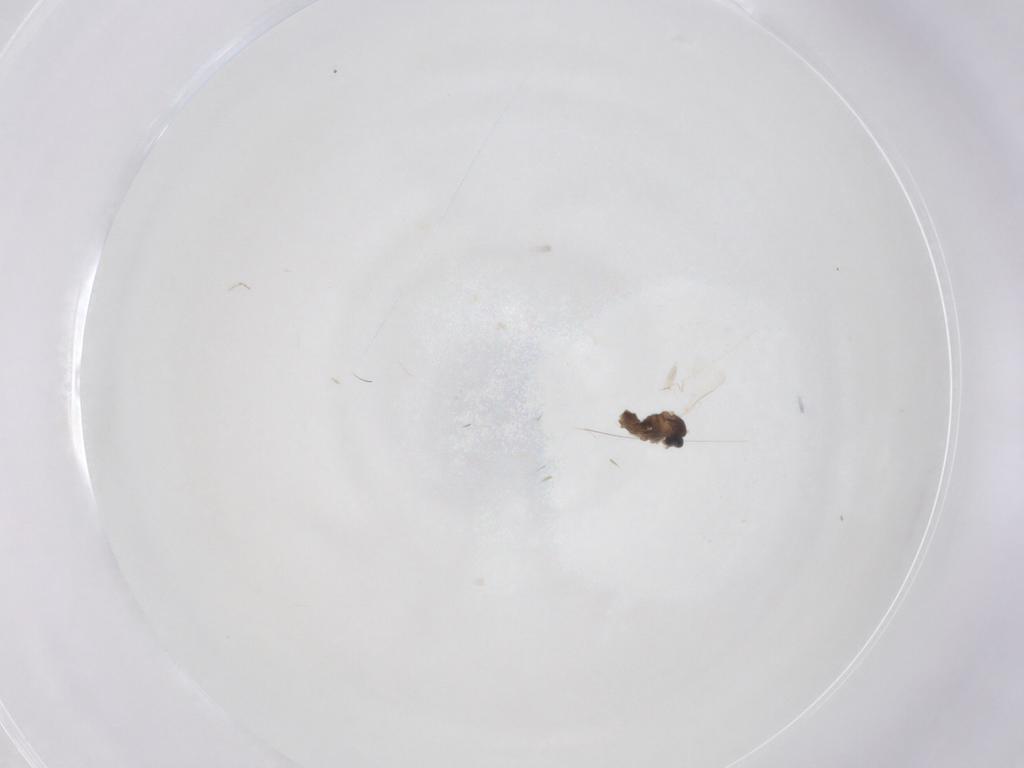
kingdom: Animalia
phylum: Arthropoda
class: Insecta
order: Diptera
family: Cecidomyiidae
